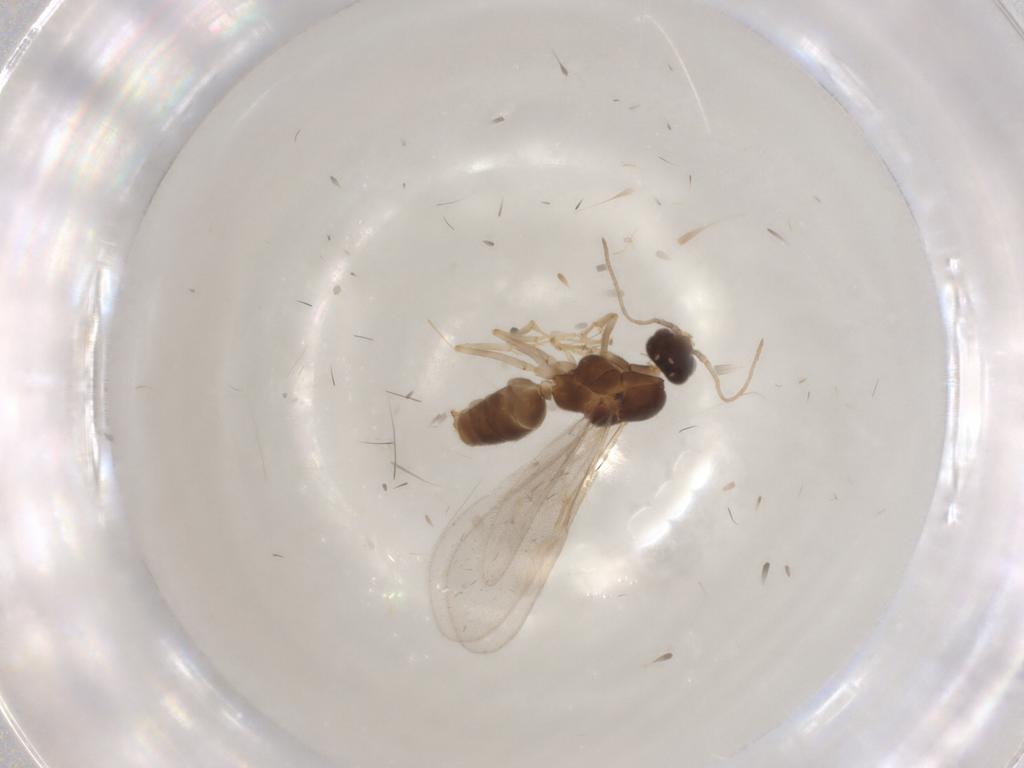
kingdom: Animalia
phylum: Arthropoda
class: Insecta
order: Hymenoptera
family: Formicidae
